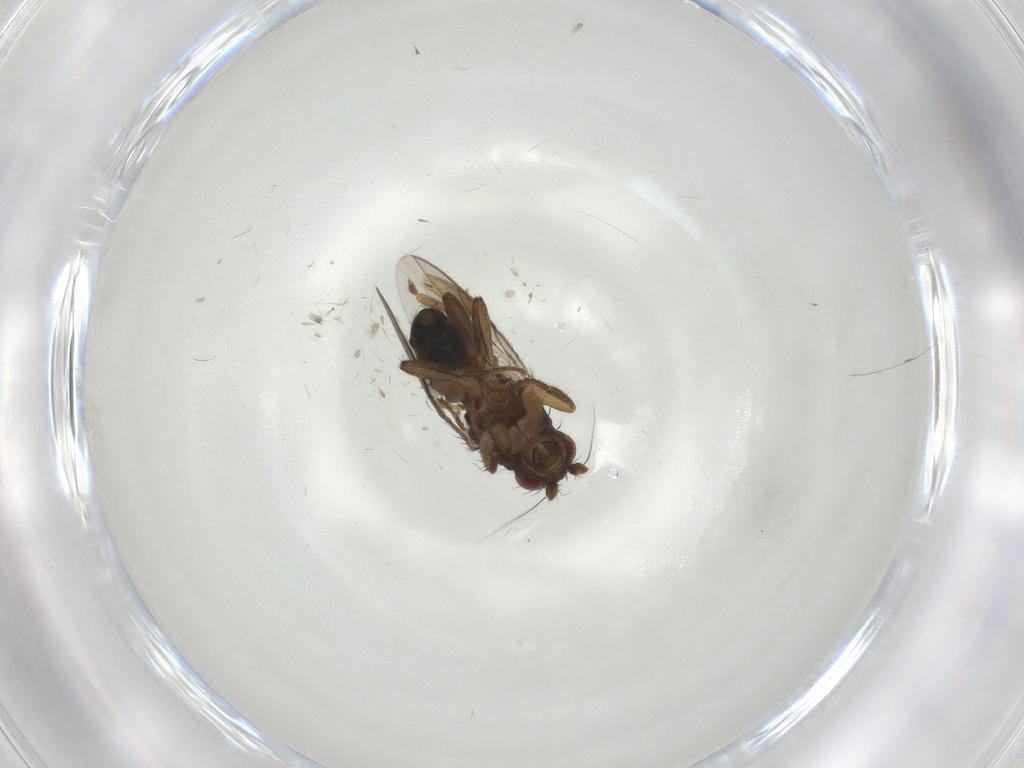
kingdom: Animalia
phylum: Arthropoda
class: Insecta
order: Diptera
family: Sphaeroceridae
